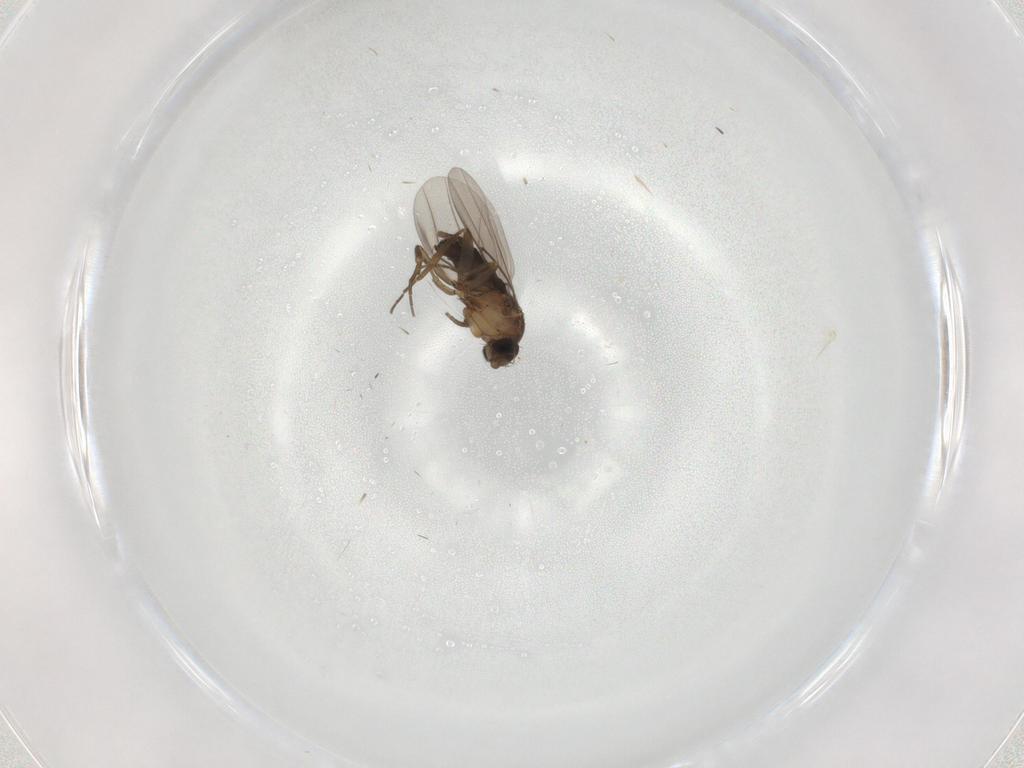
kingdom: Animalia
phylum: Arthropoda
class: Insecta
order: Diptera
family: Phoridae
